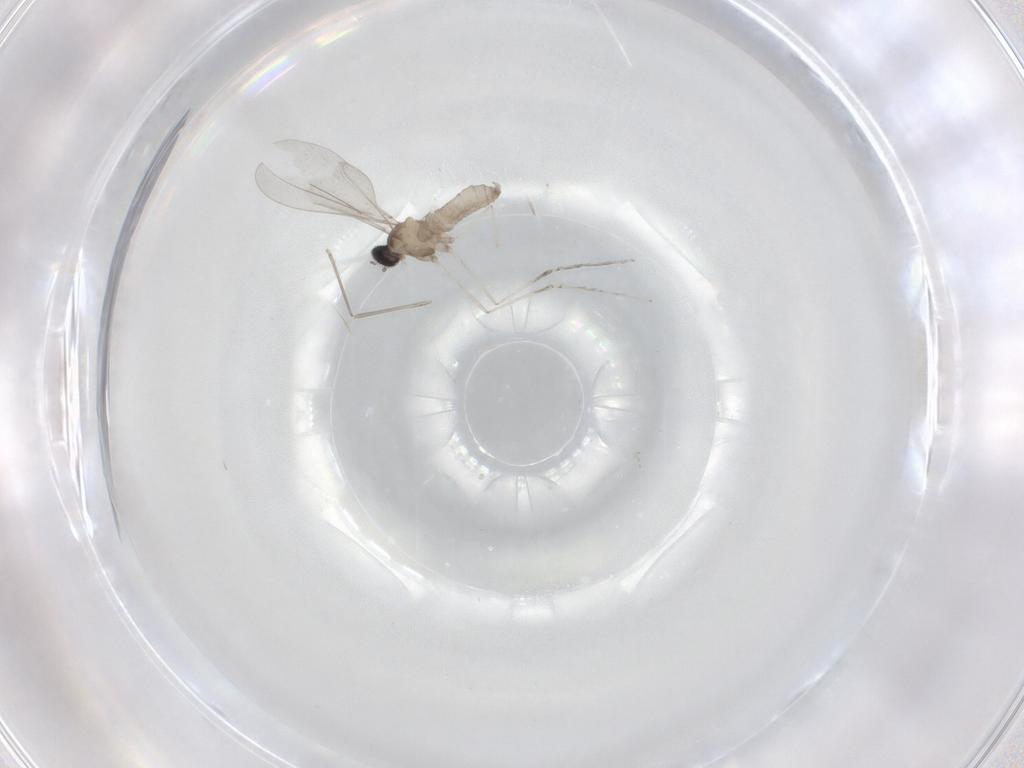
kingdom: Animalia
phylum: Arthropoda
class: Insecta
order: Diptera
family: Cecidomyiidae
